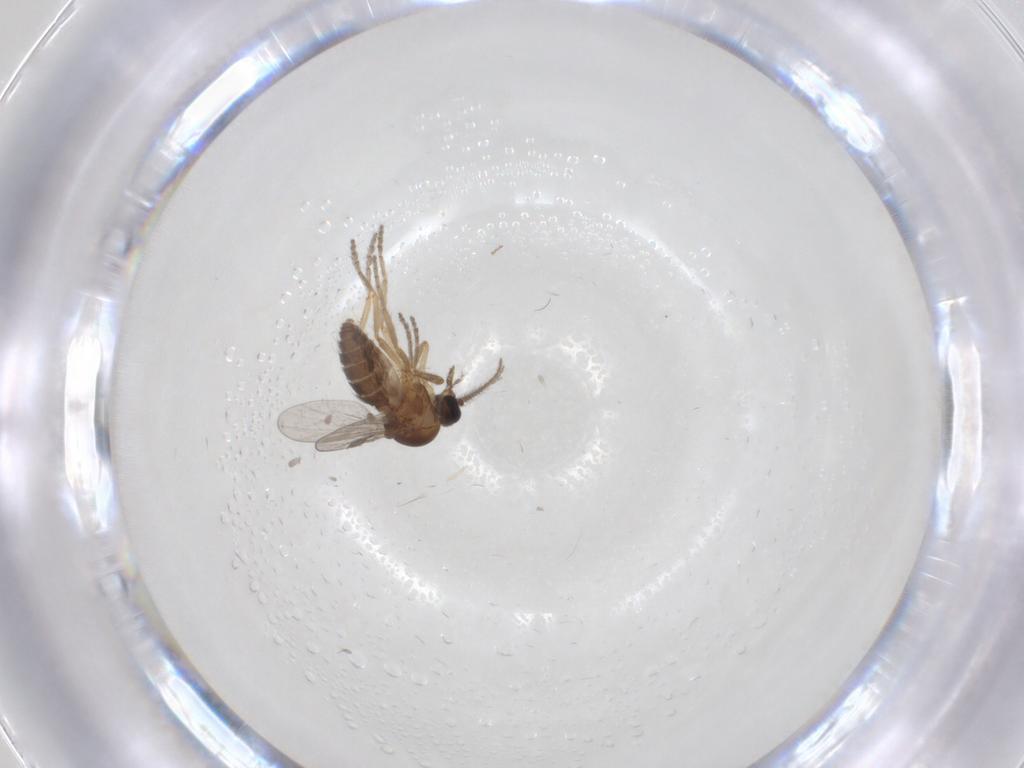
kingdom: Animalia
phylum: Arthropoda
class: Insecta
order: Diptera
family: Ceratopogonidae
